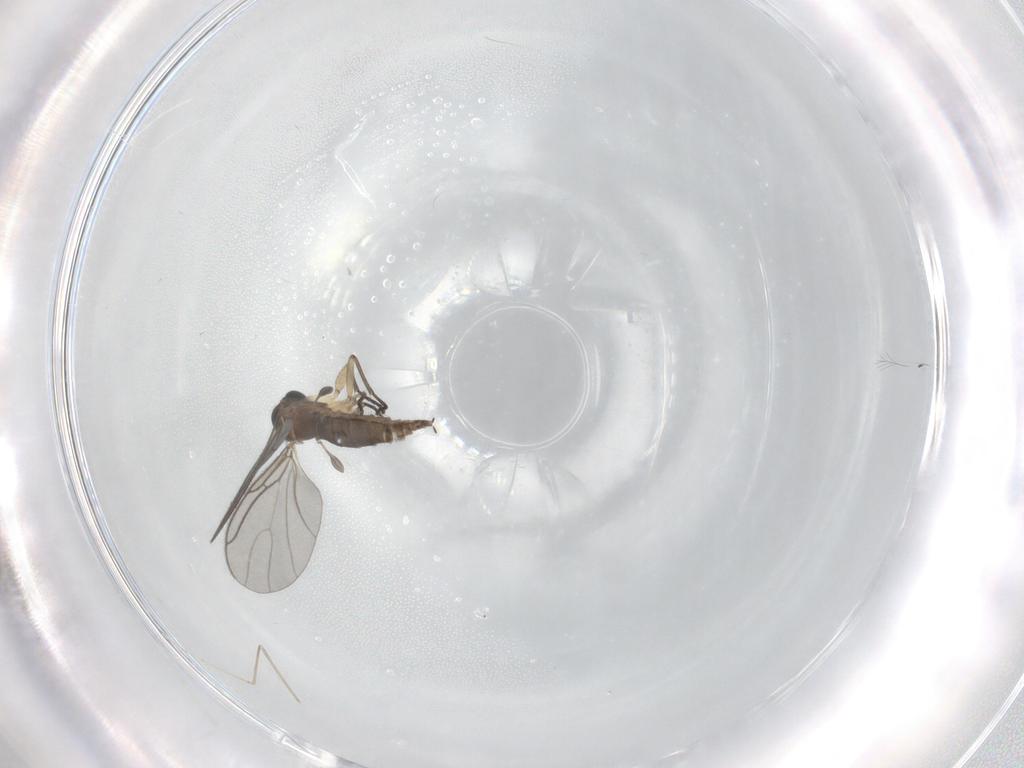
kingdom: Animalia
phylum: Arthropoda
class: Insecta
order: Diptera
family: Sciaridae
